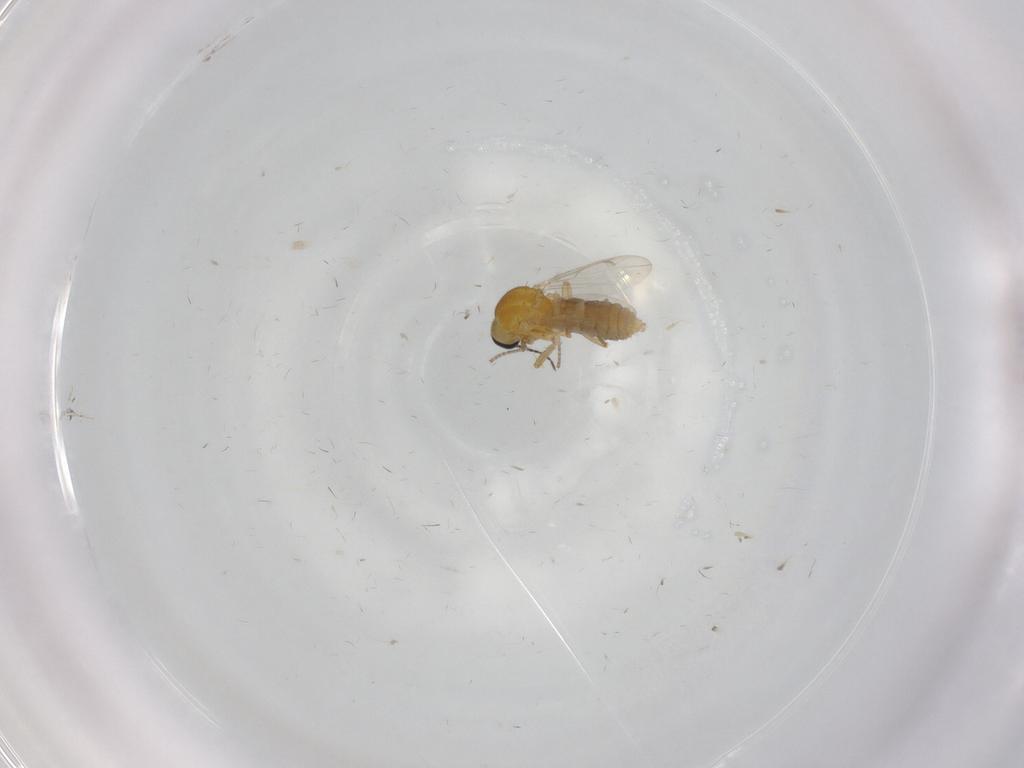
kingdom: Animalia
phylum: Arthropoda
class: Insecta
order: Diptera
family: Ceratopogonidae
